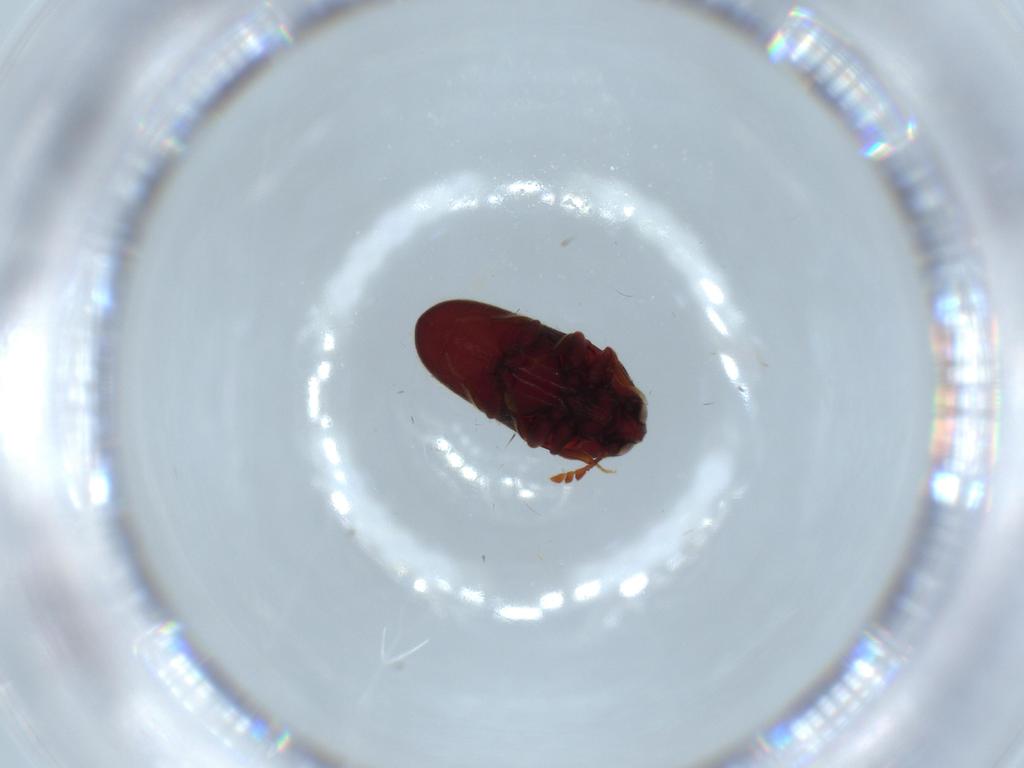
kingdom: Animalia
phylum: Arthropoda
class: Insecta
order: Coleoptera
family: Throscidae
